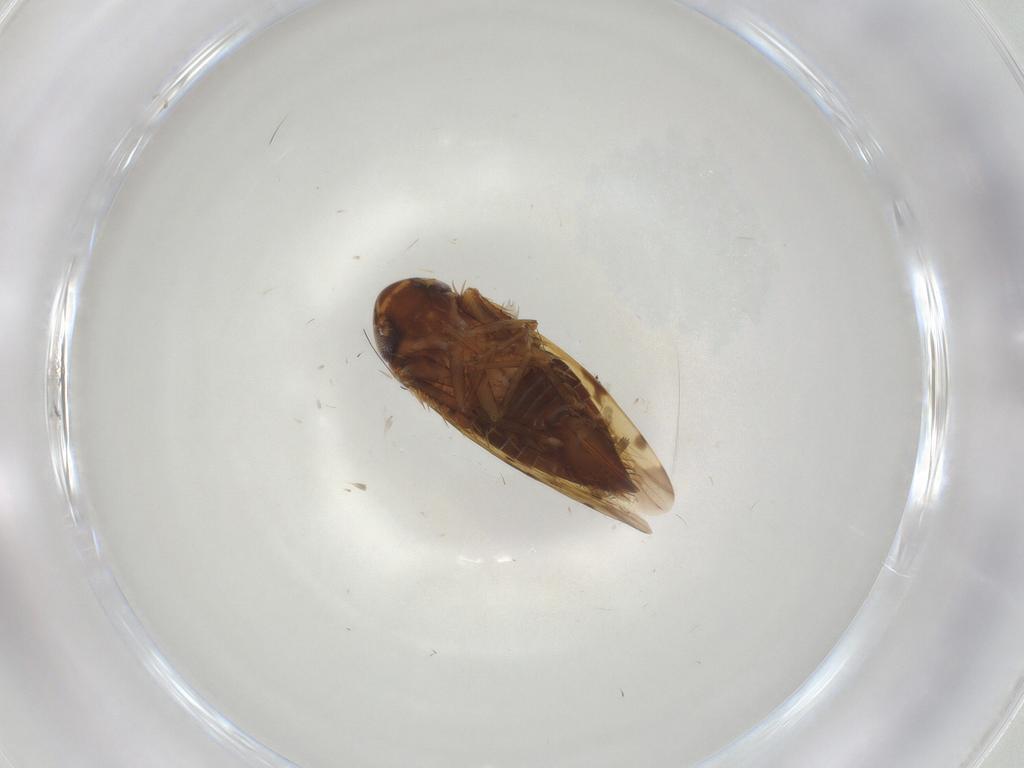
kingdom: Animalia
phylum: Arthropoda
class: Insecta
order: Hemiptera
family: Cicadellidae
